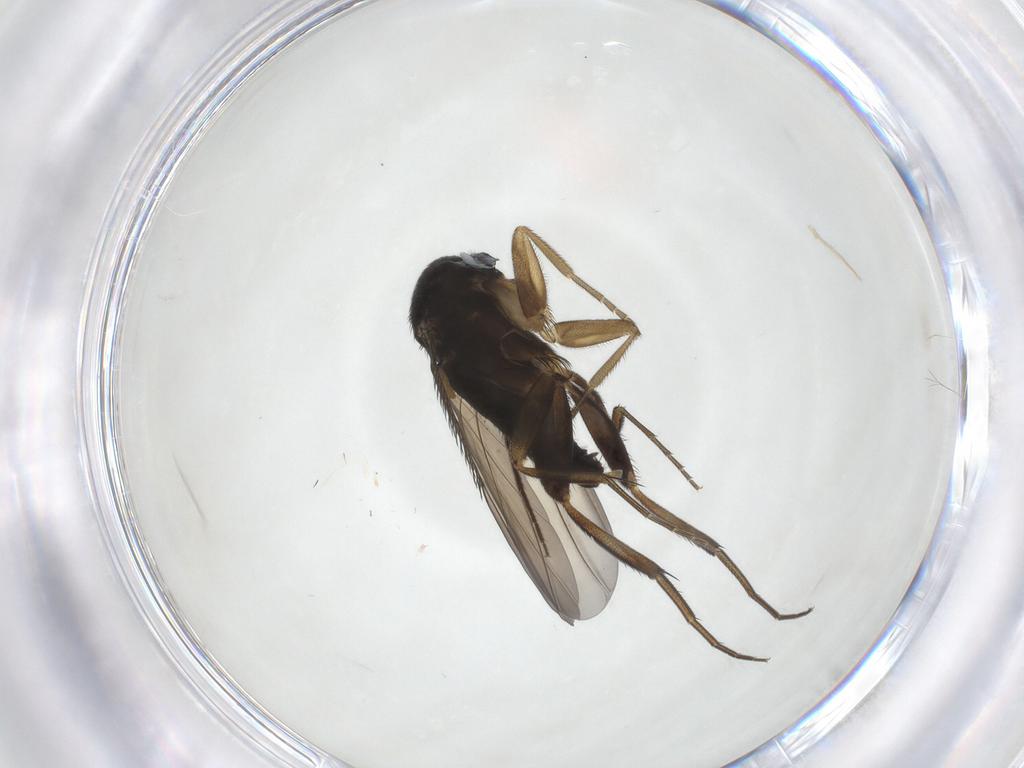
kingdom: Animalia
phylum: Arthropoda
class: Insecta
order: Diptera
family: Phoridae
